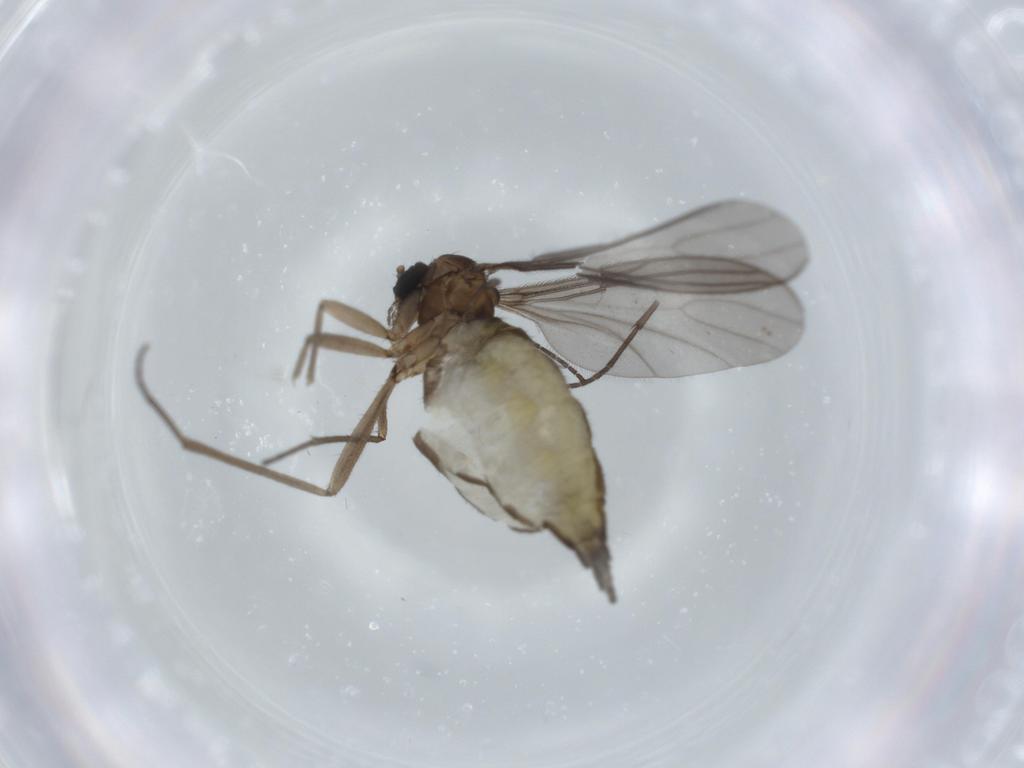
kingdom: Animalia
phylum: Arthropoda
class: Insecta
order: Diptera
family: Sciaridae
